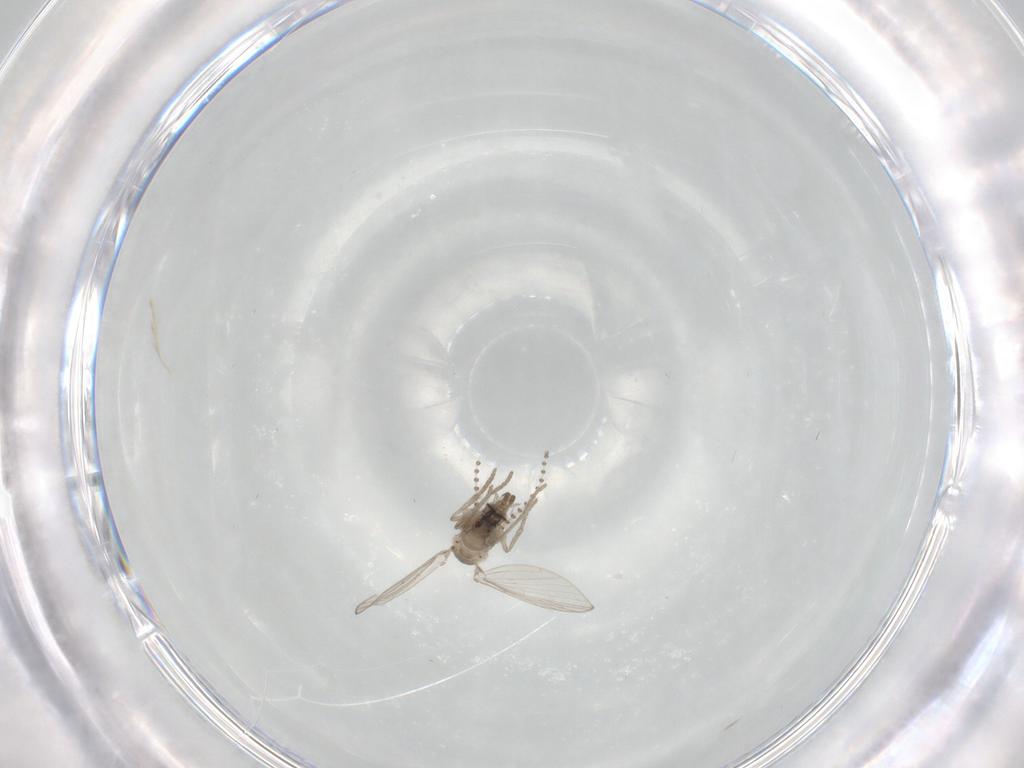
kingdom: Animalia
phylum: Arthropoda
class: Insecta
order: Diptera
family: Psychodidae
